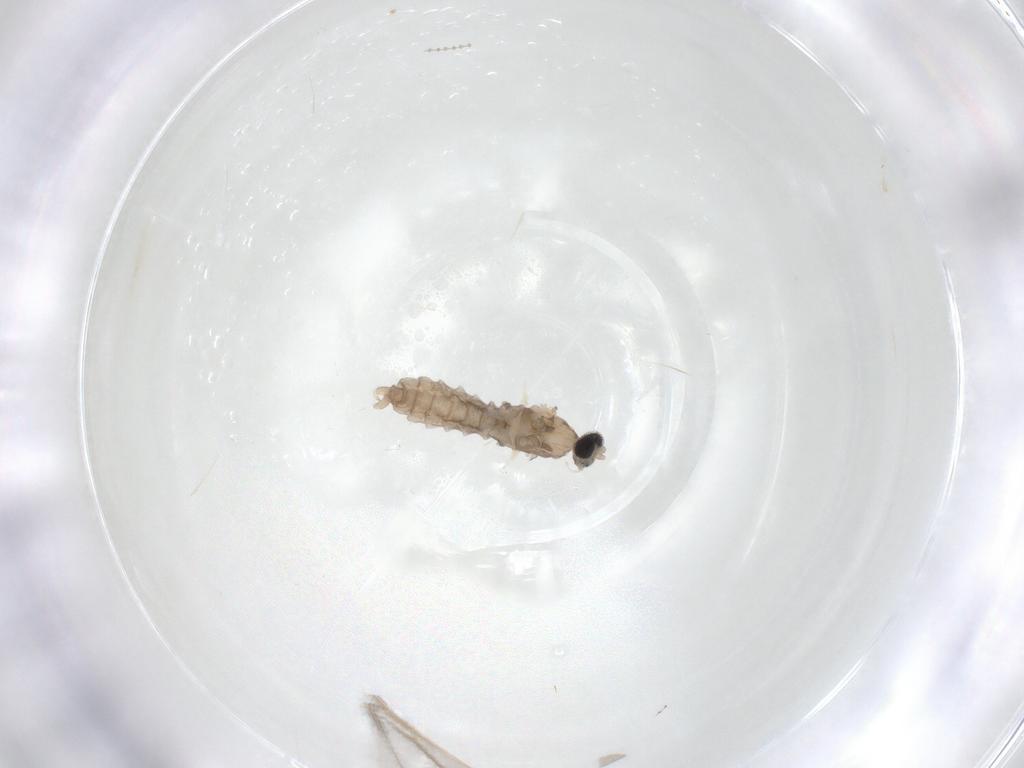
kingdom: Animalia
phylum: Arthropoda
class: Insecta
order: Diptera
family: Cecidomyiidae
